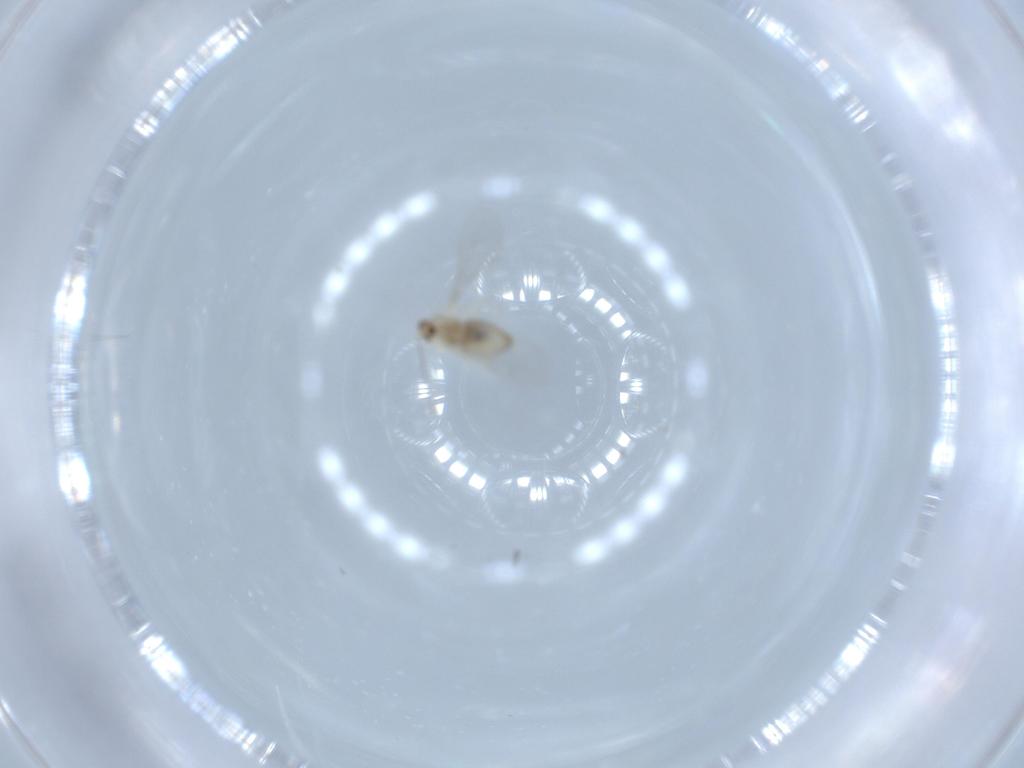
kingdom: Animalia
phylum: Arthropoda
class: Insecta
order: Diptera
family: Cecidomyiidae
